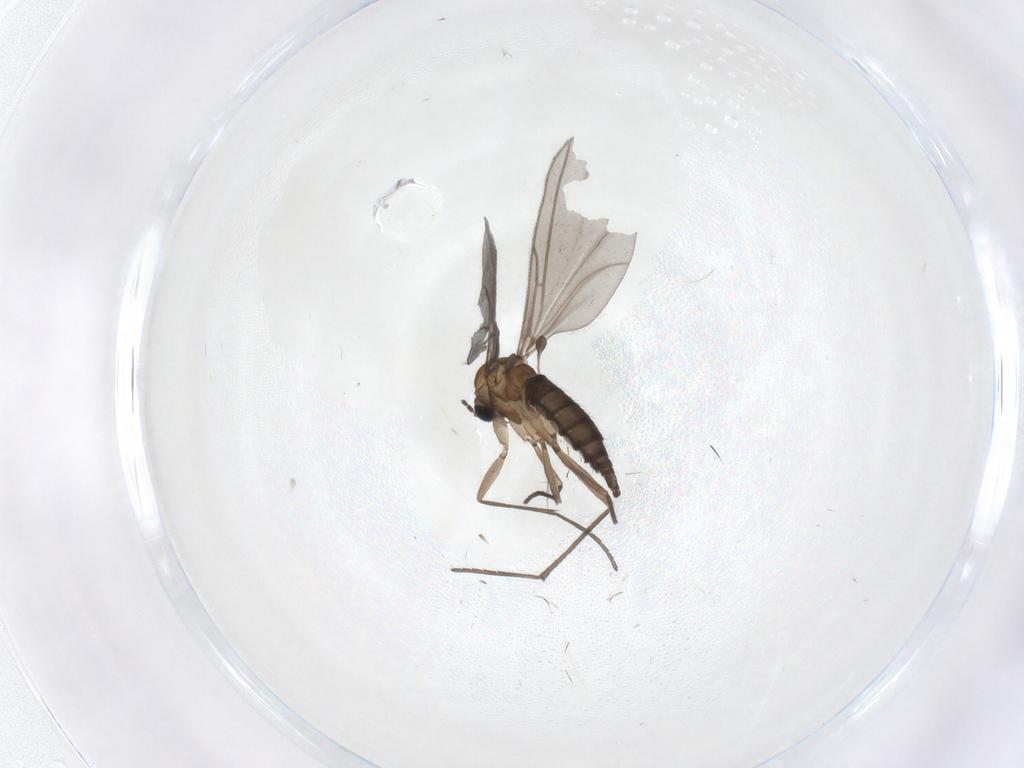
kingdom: Animalia
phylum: Arthropoda
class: Insecta
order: Diptera
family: Sciaridae
